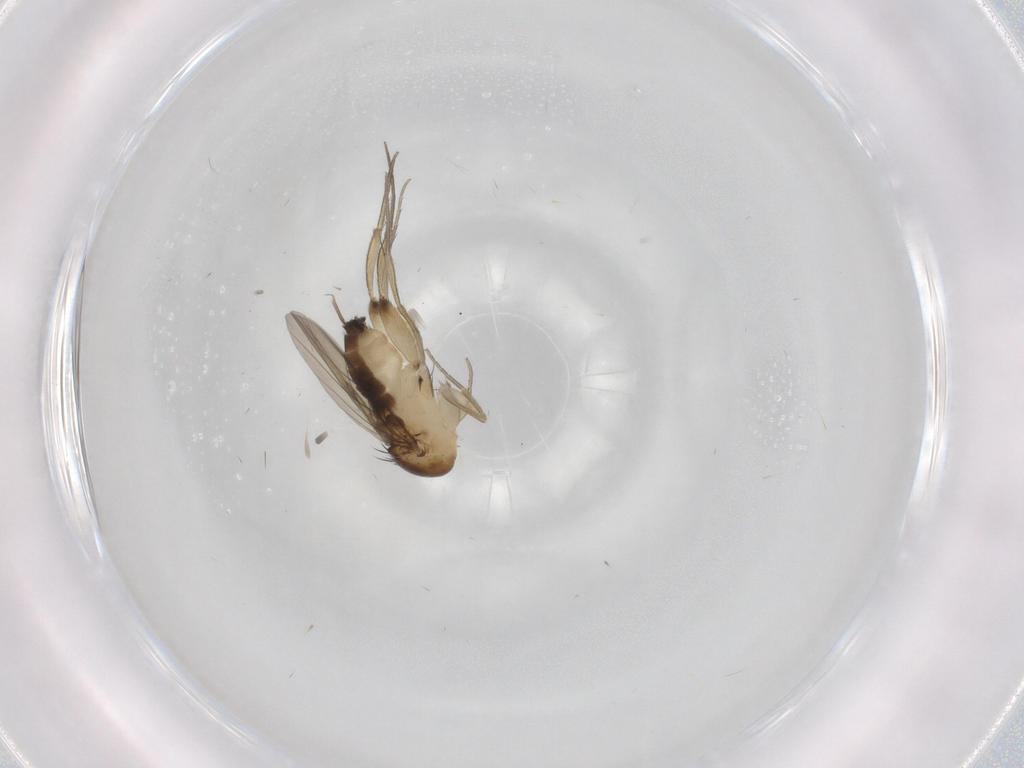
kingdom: Animalia
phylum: Arthropoda
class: Insecta
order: Diptera
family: Phoridae
